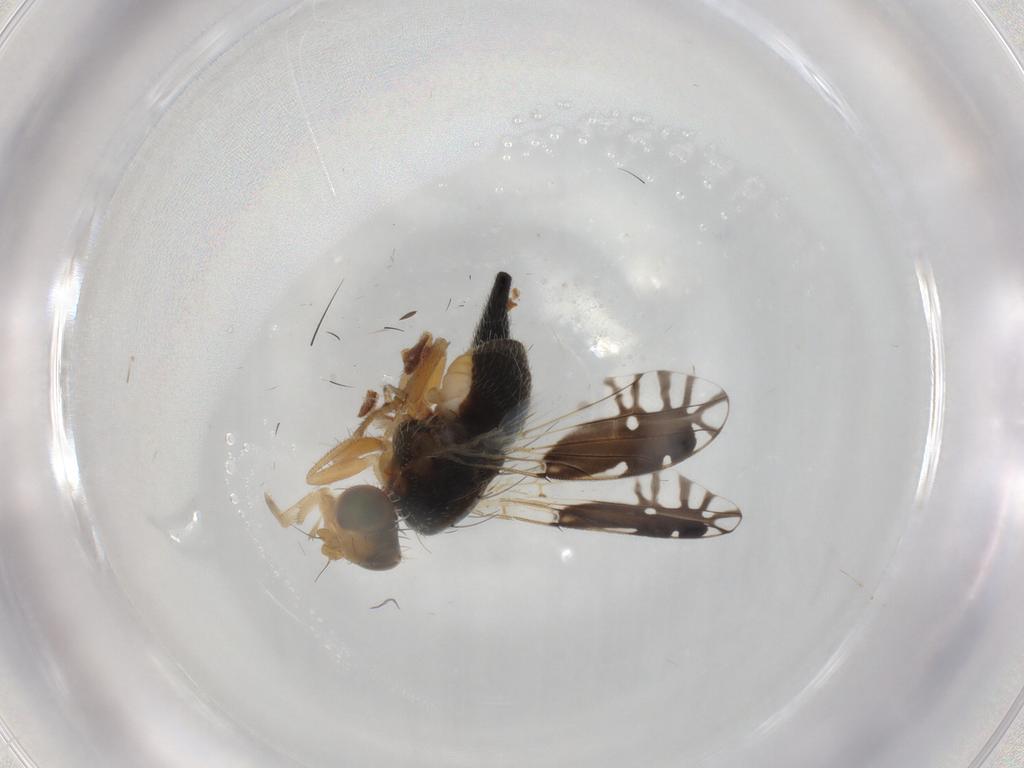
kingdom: Animalia
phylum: Arthropoda
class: Insecta
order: Diptera
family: Tephritidae
